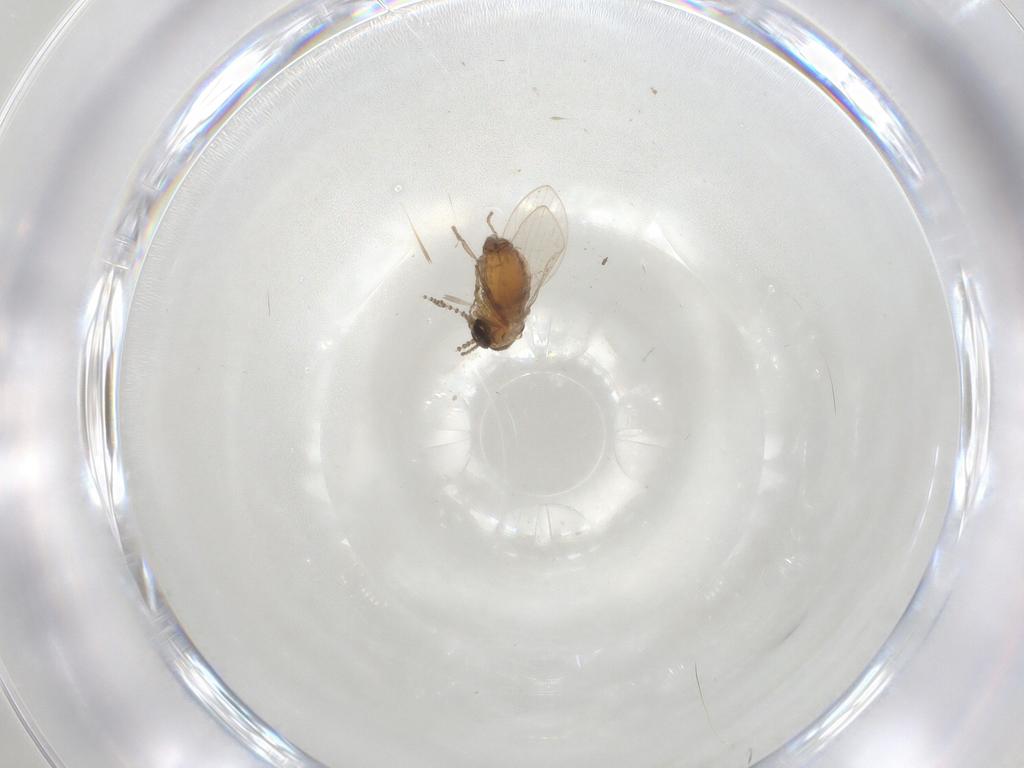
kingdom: Animalia
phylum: Arthropoda
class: Insecta
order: Diptera
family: Psychodidae
